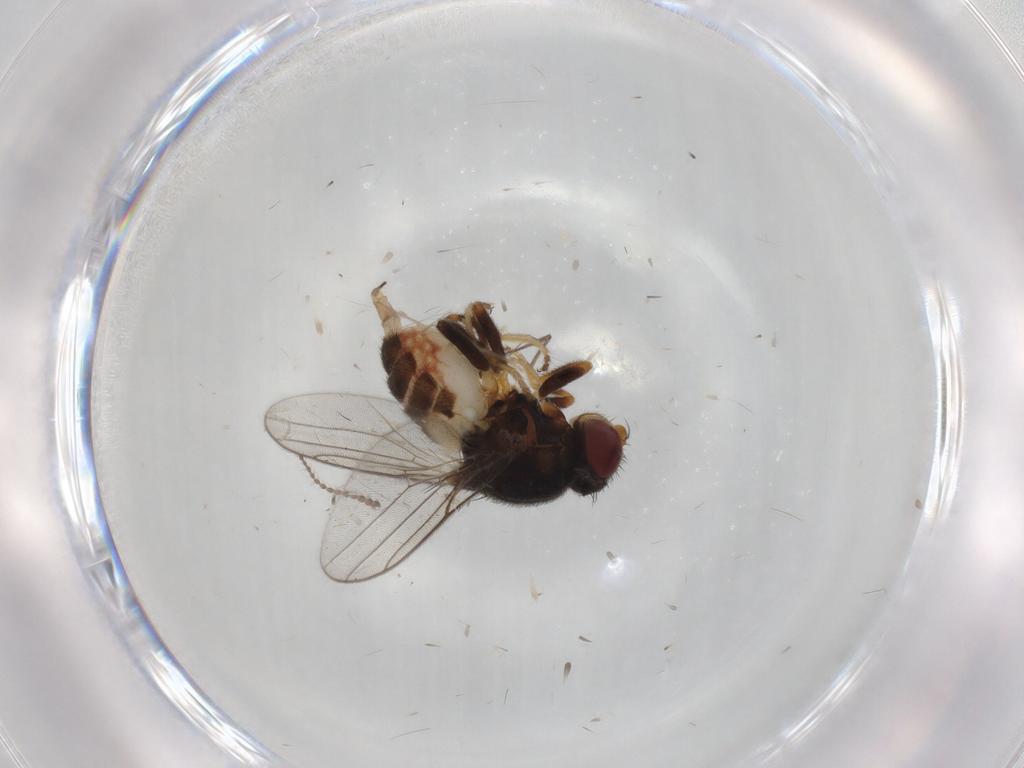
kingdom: Animalia
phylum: Arthropoda
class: Insecta
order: Diptera
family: Chloropidae
